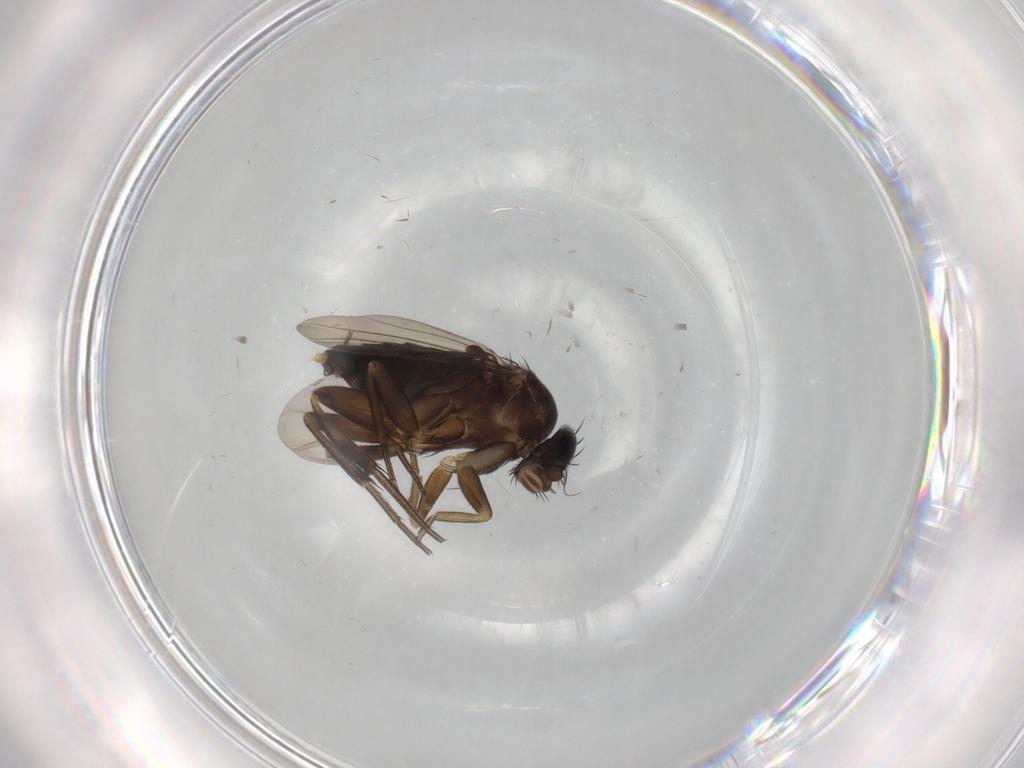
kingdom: Animalia
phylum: Arthropoda
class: Insecta
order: Diptera
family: Phoridae
